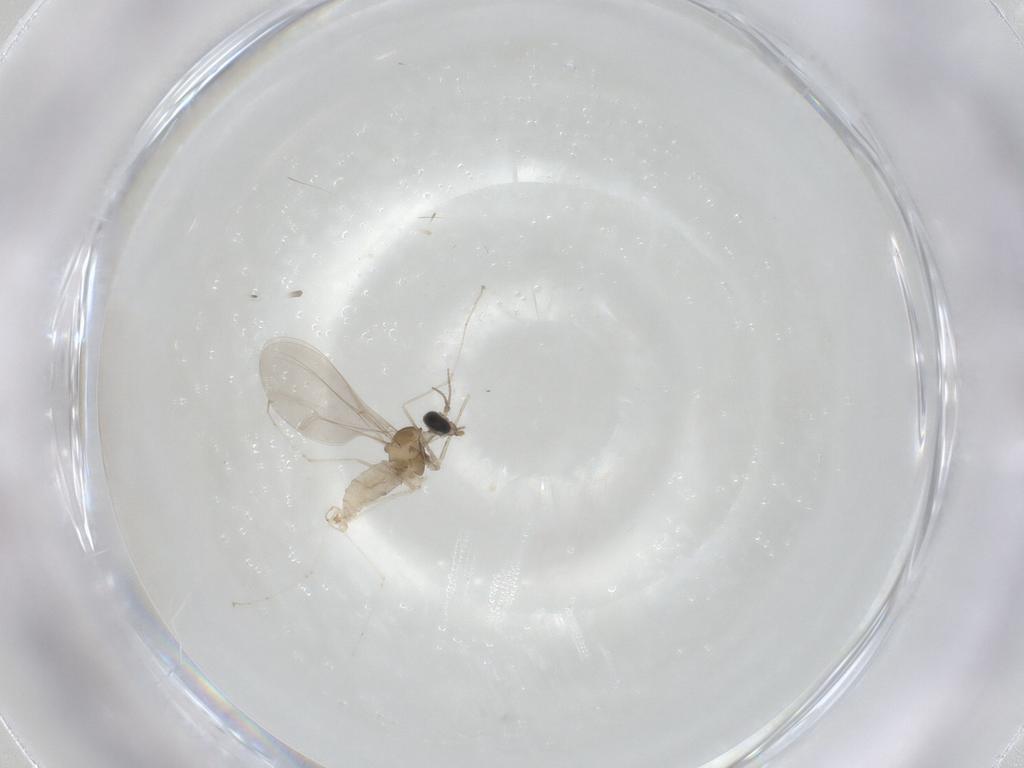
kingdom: Animalia
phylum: Arthropoda
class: Insecta
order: Diptera
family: Cecidomyiidae
